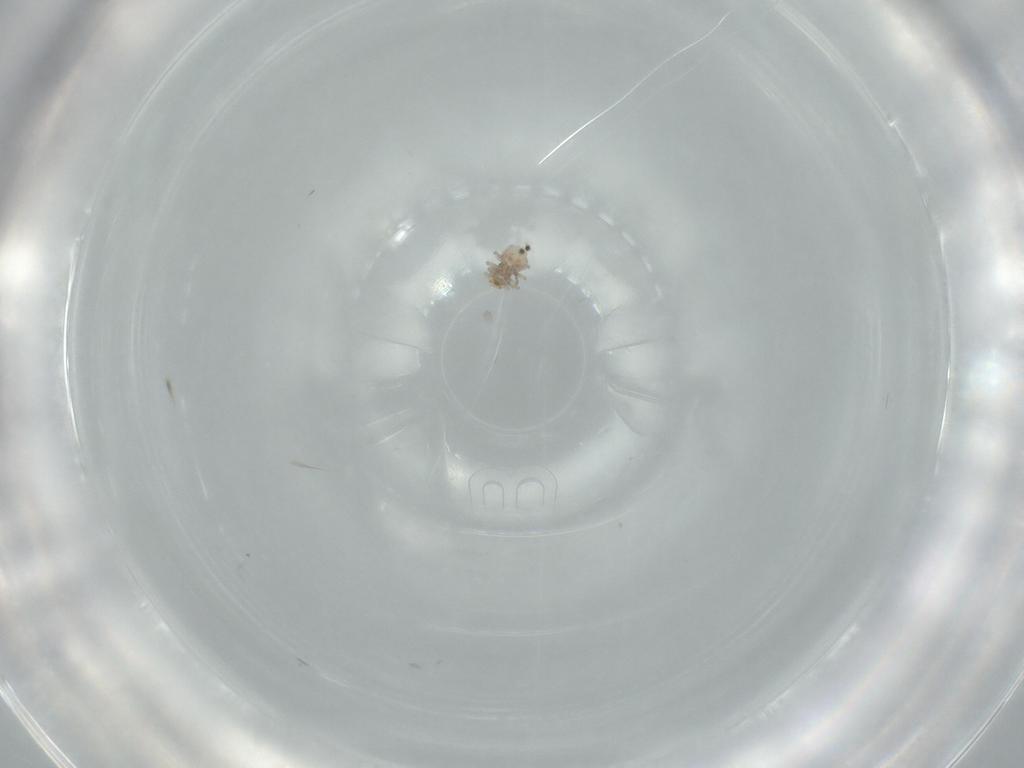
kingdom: Animalia
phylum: Arthropoda
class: Insecta
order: Psocodea
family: Caeciliusidae
